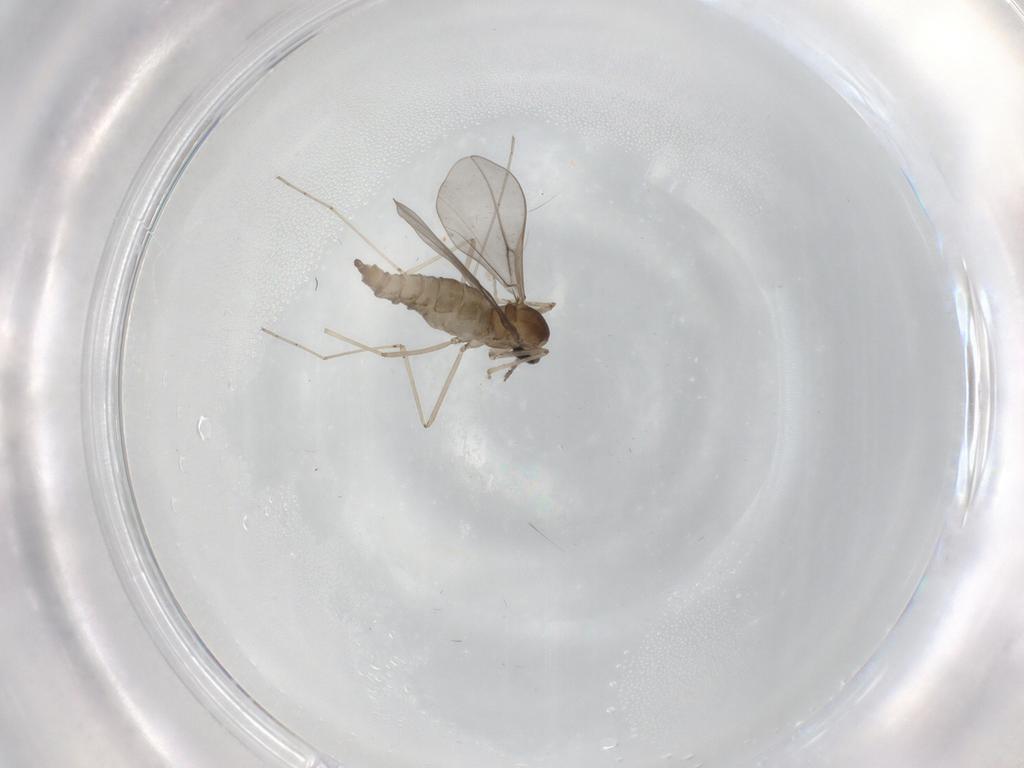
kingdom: Animalia
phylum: Arthropoda
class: Insecta
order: Diptera
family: Cecidomyiidae
